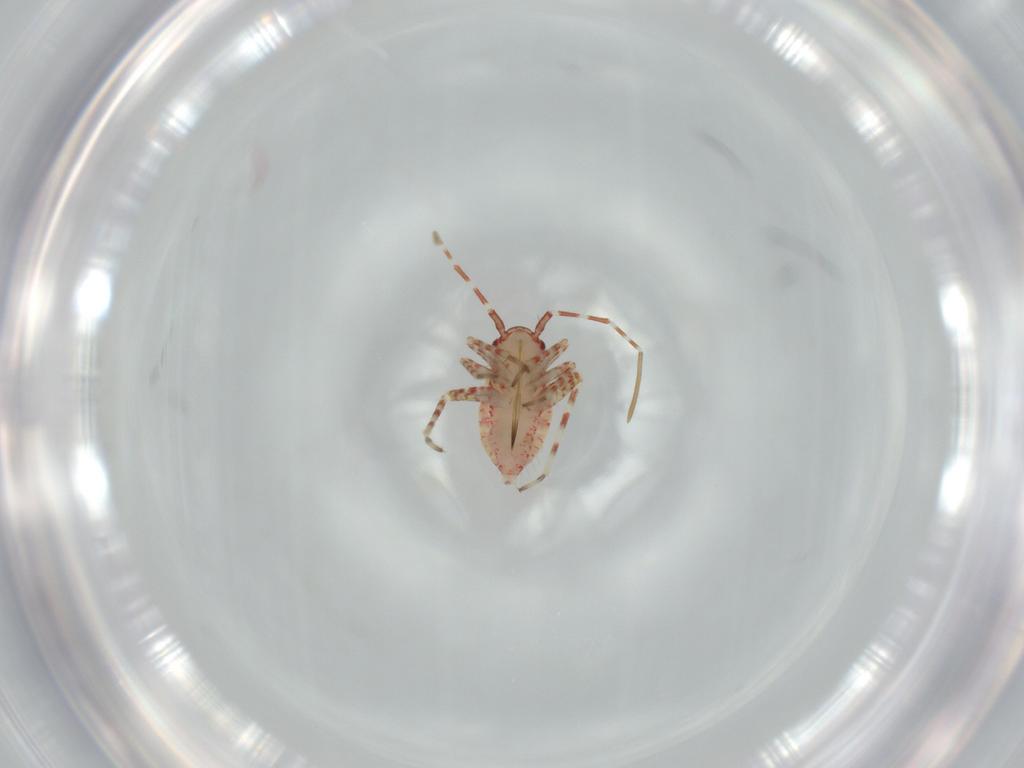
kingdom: Animalia
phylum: Arthropoda
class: Insecta
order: Hemiptera
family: Miridae
